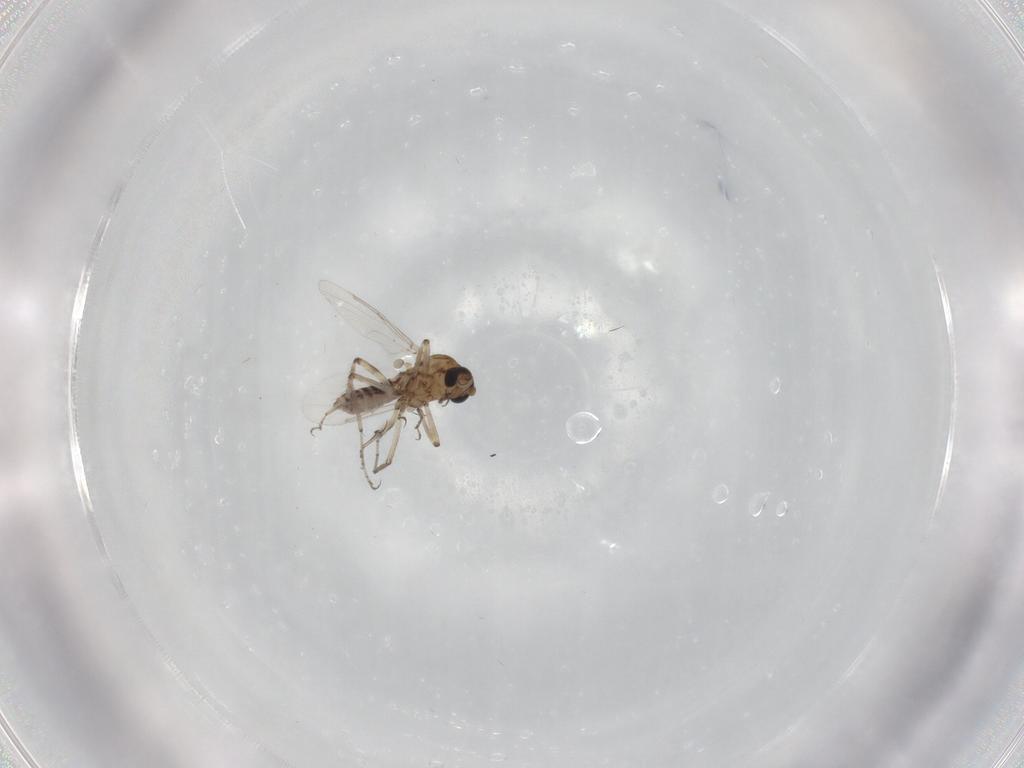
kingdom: Animalia
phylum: Arthropoda
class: Insecta
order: Diptera
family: Ceratopogonidae
